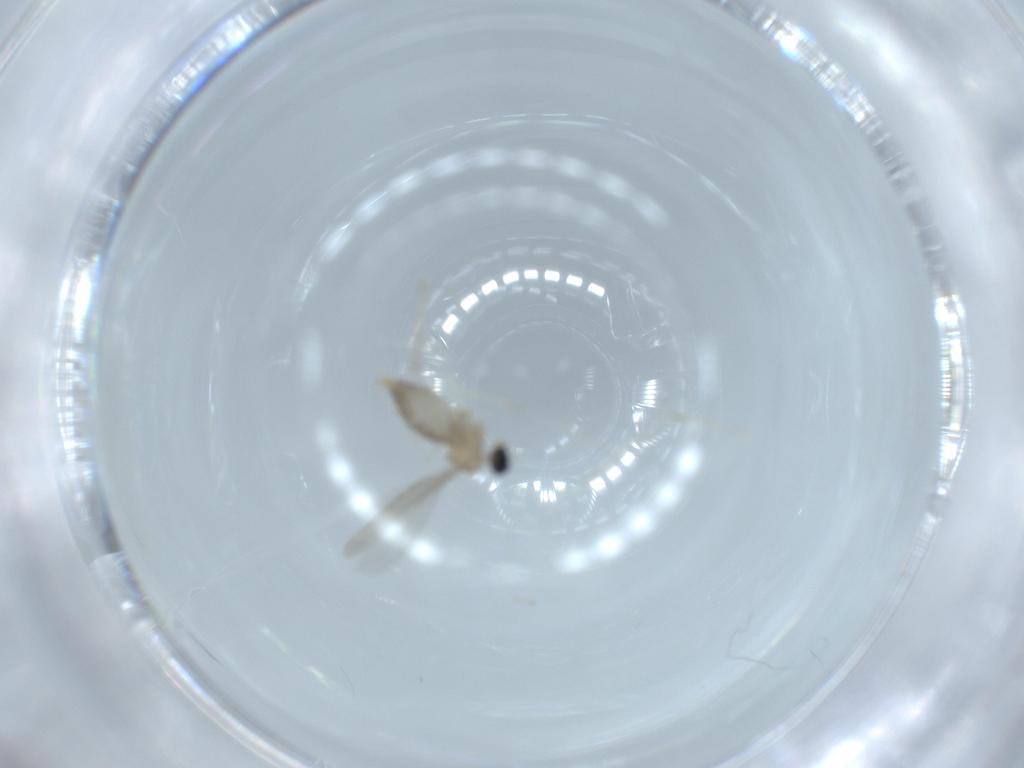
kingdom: Animalia
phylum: Arthropoda
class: Insecta
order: Diptera
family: Cecidomyiidae
